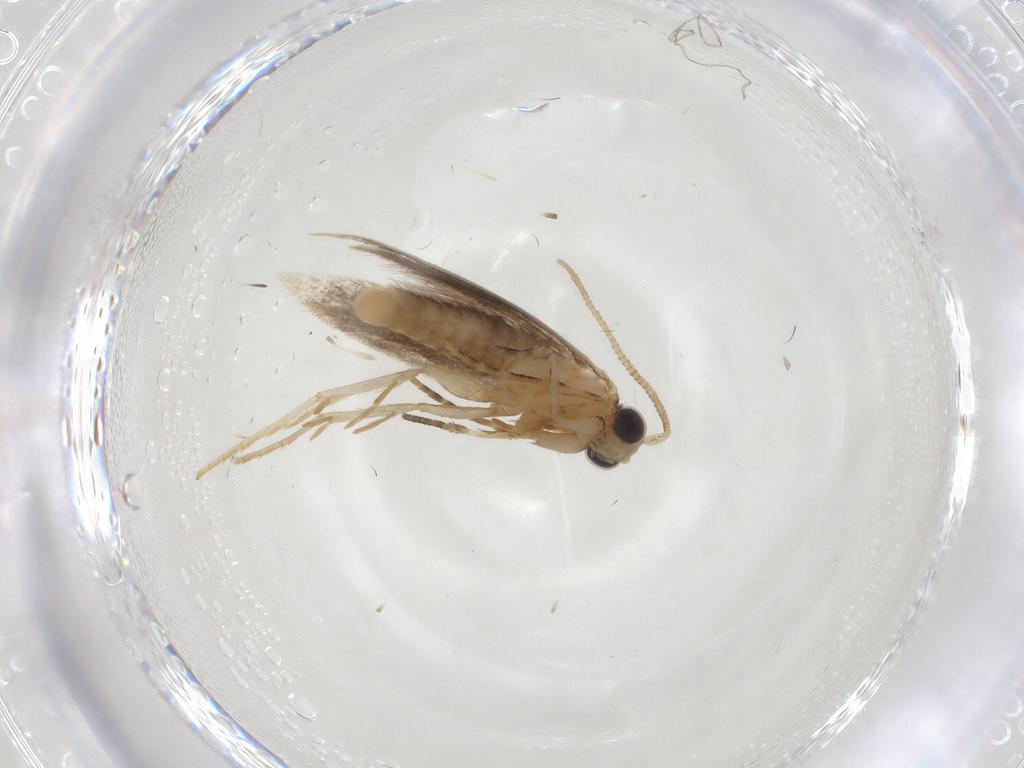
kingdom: Animalia
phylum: Arthropoda
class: Insecta
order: Lepidoptera
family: Tineidae
